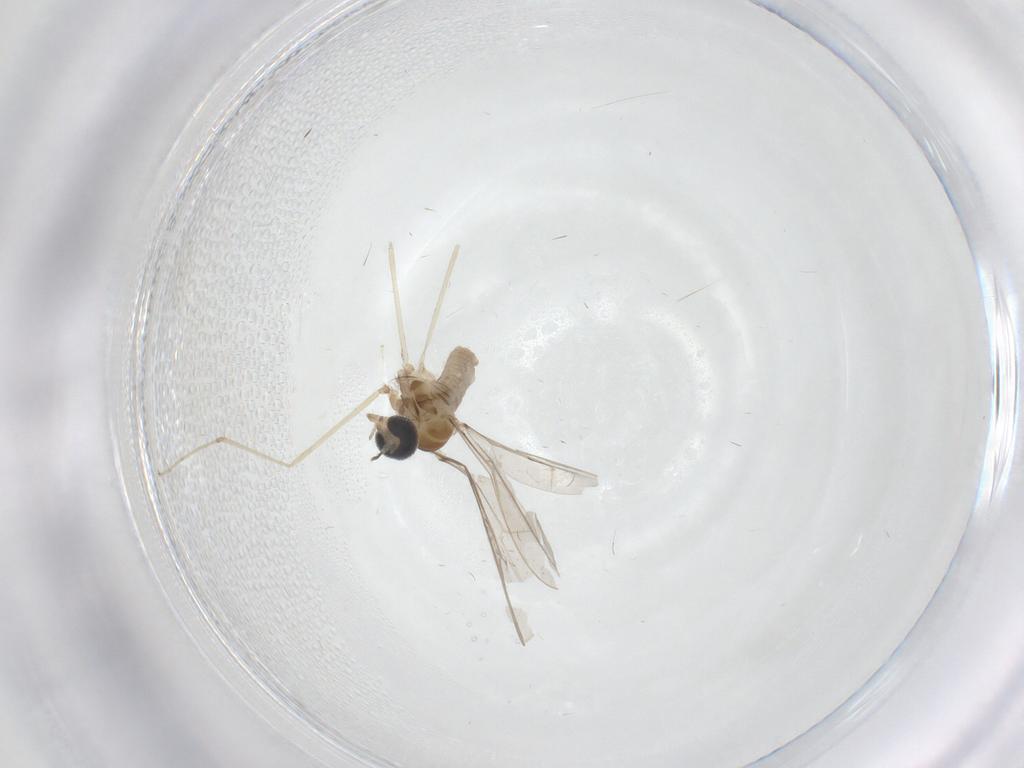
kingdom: Animalia
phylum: Arthropoda
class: Insecta
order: Diptera
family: Cecidomyiidae
